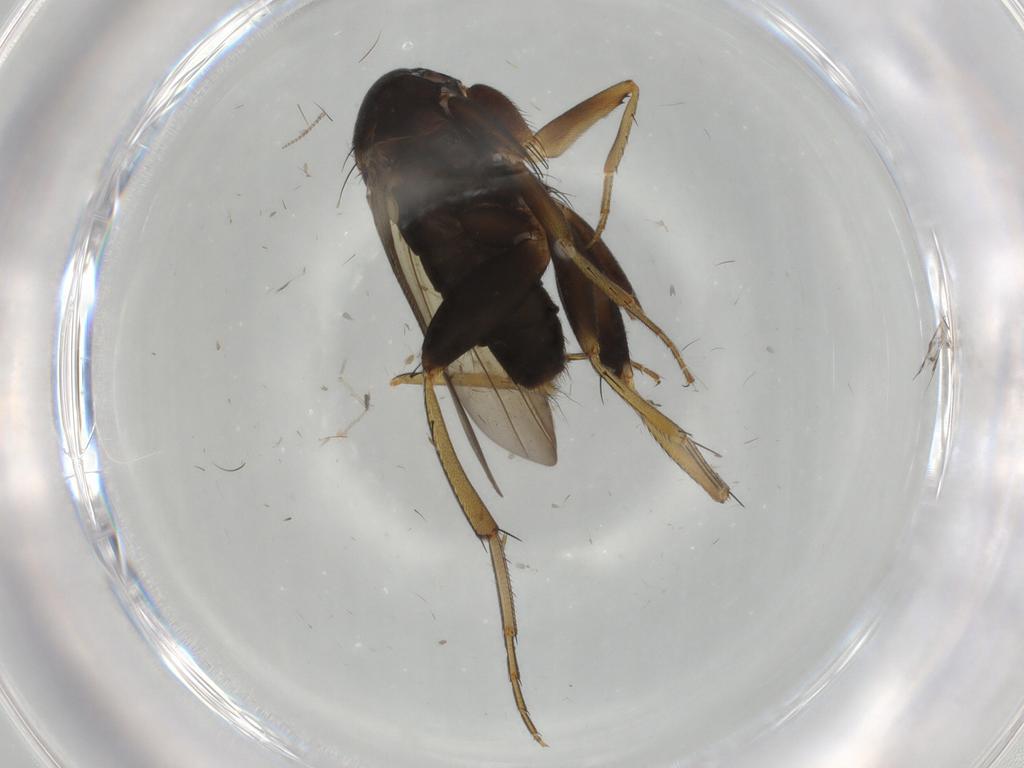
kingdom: Animalia
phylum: Arthropoda
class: Insecta
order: Diptera
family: Phoridae
